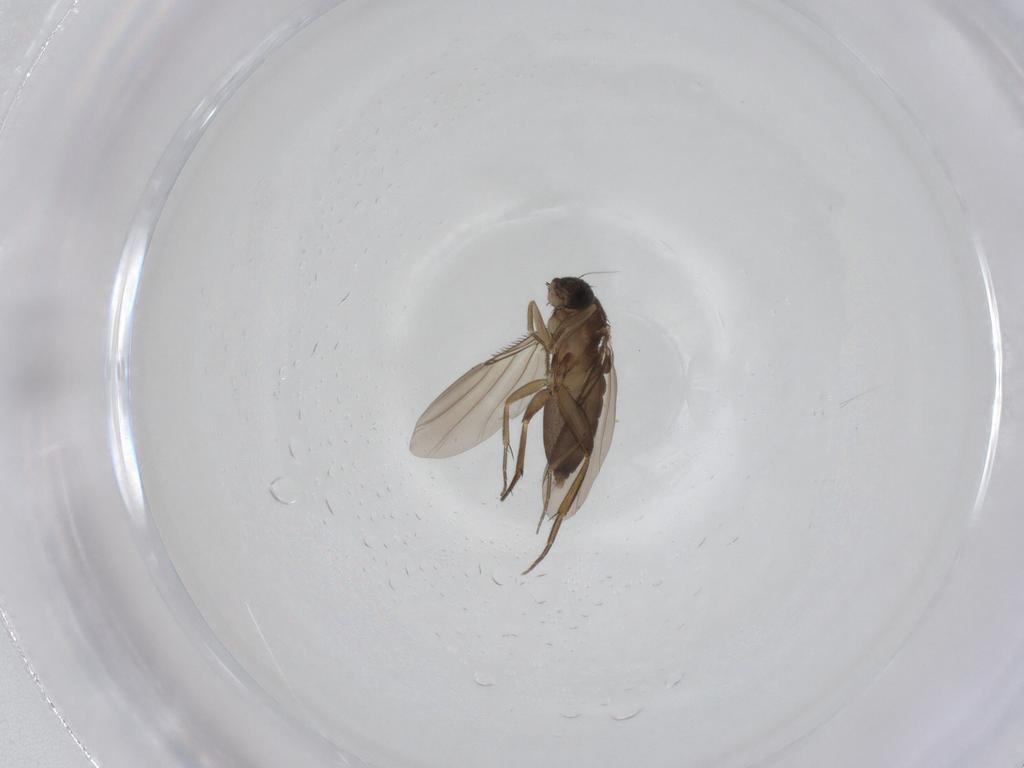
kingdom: Animalia
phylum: Arthropoda
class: Insecta
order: Diptera
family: Phoridae
